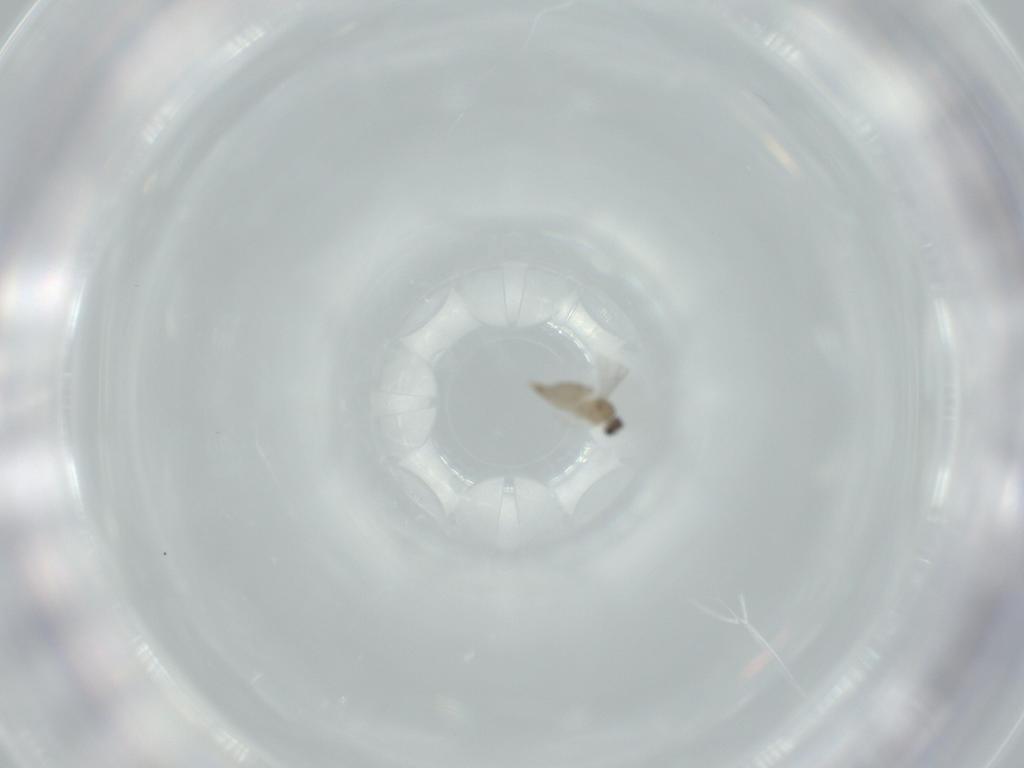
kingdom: Animalia
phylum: Arthropoda
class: Insecta
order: Diptera
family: Cecidomyiidae
